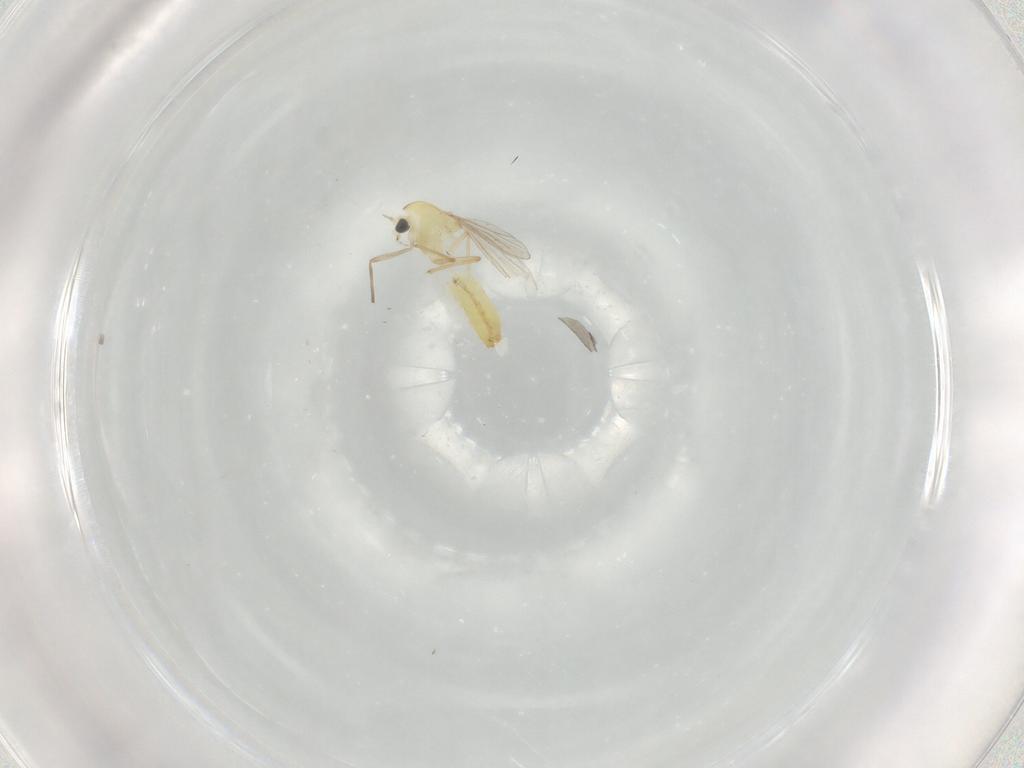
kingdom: Animalia
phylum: Arthropoda
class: Insecta
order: Diptera
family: Chironomidae
